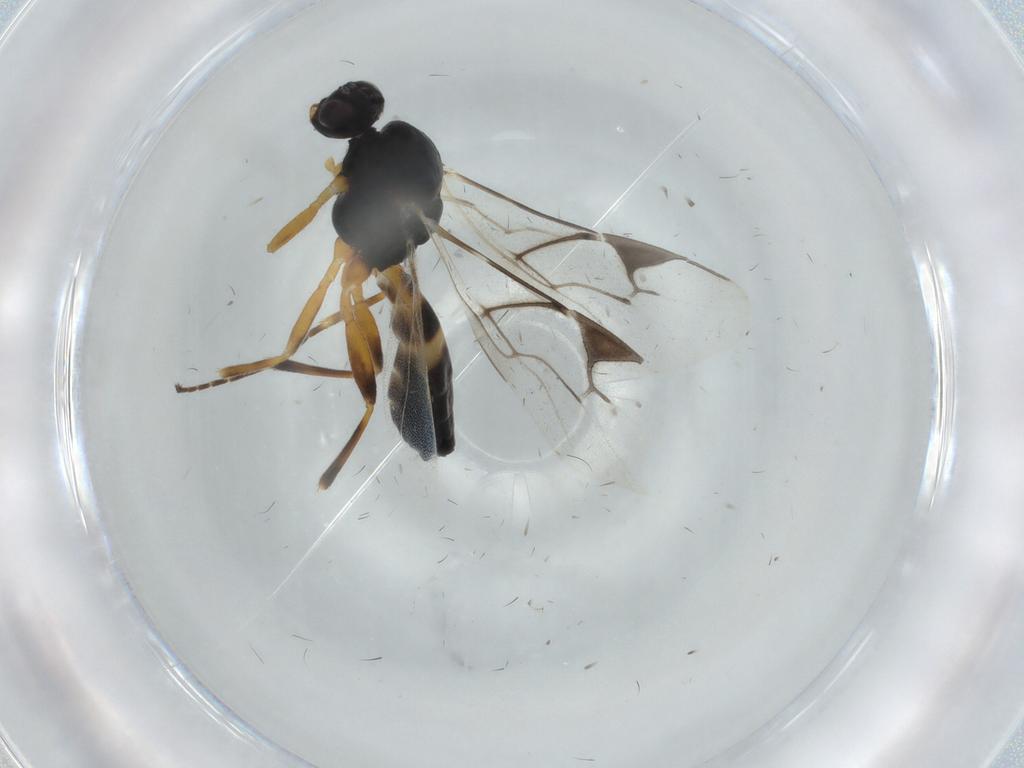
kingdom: Animalia
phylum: Arthropoda
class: Insecta
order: Hymenoptera
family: Braconidae
